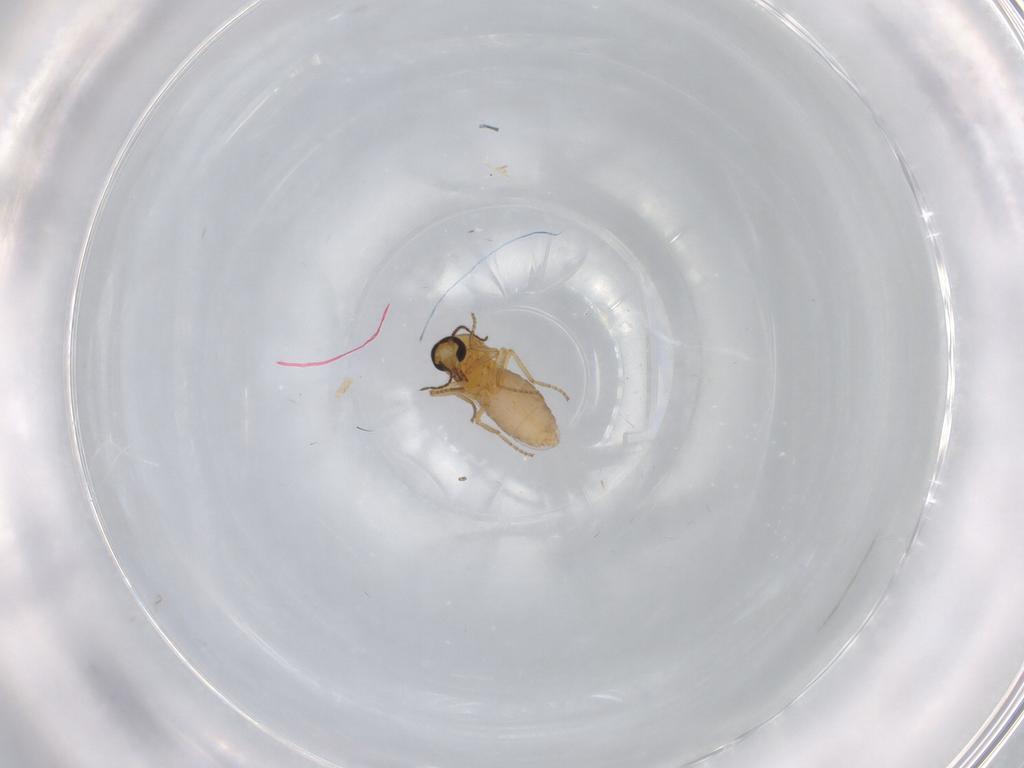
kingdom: Animalia
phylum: Arthropoda
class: Insecta
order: Diptera
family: Ceratopogonidae
